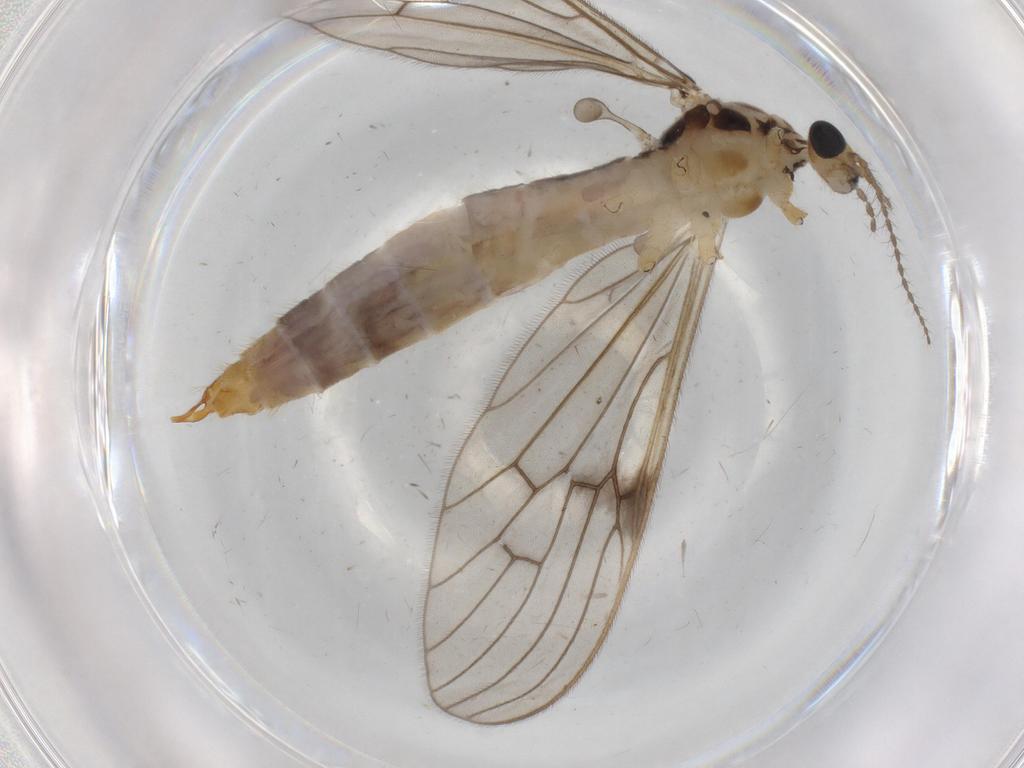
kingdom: Animalia
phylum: Arthropoda
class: Insecta
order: Diptera
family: Limoniidae
